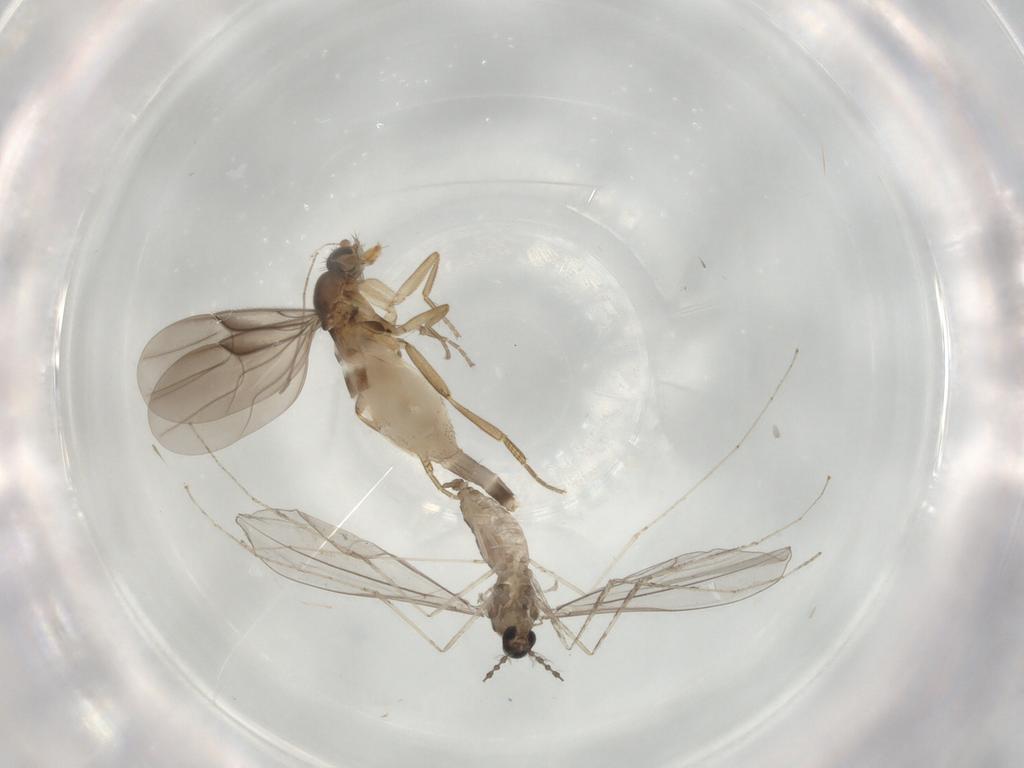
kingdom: Animalia
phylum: Arthropoda
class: Insecta
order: Diptera
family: Cecidomyiidae
